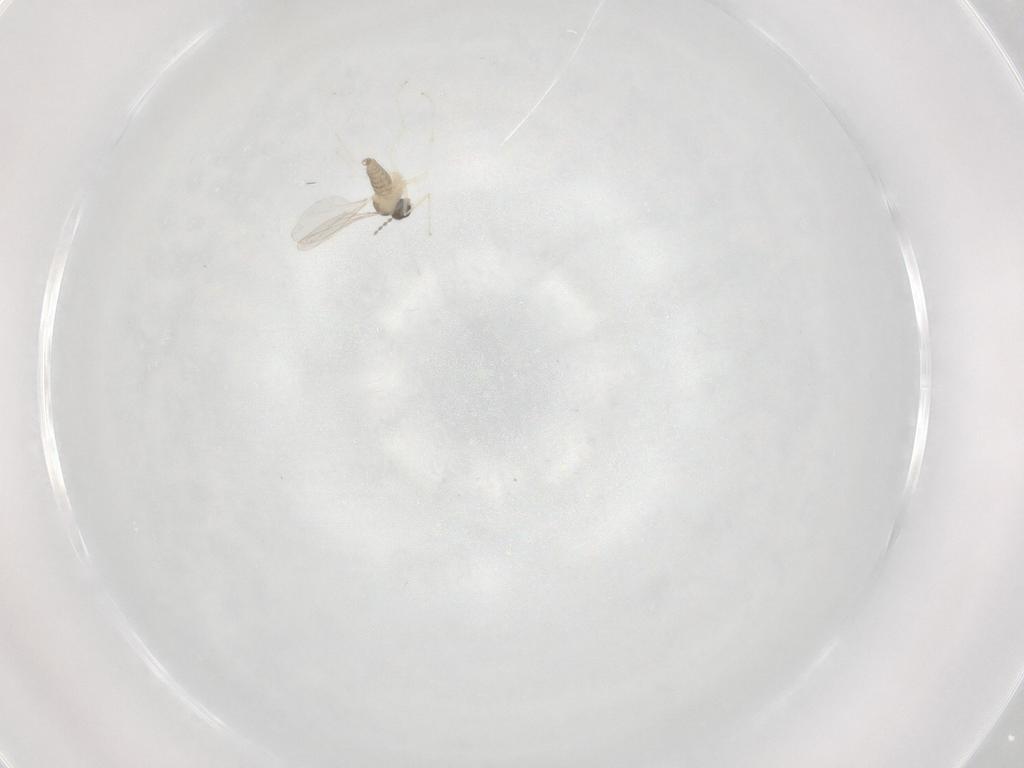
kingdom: Animalia
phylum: Arthropoda
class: Insecta
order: Diptera
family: Cecidomyiidae
